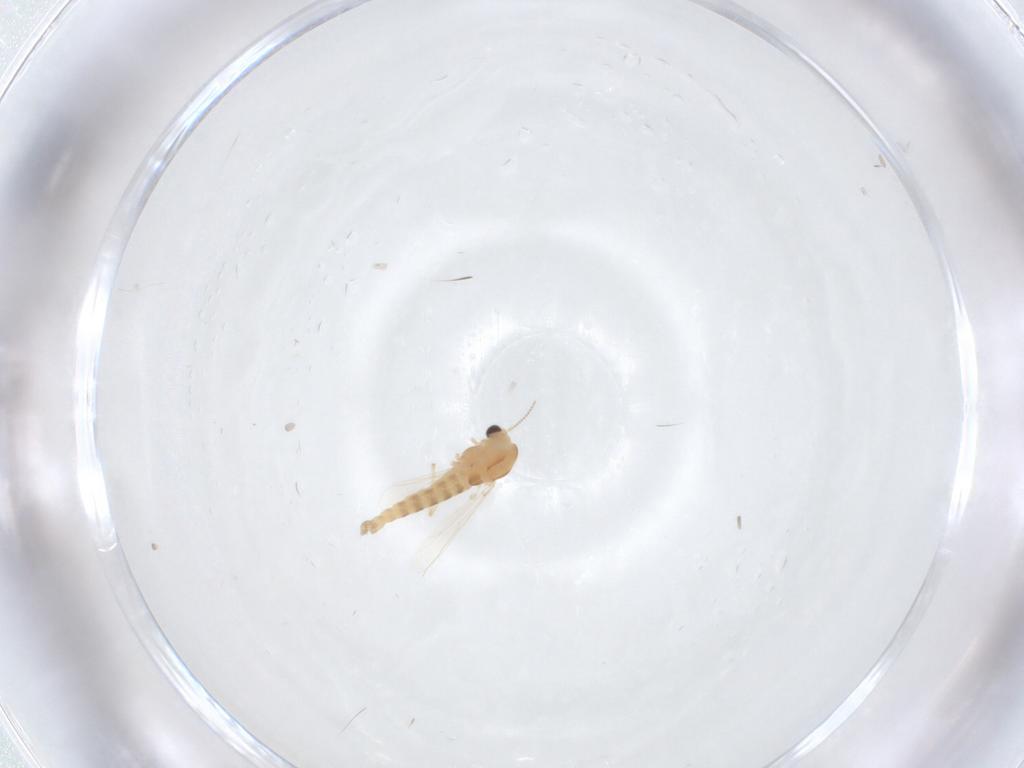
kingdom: Animalia
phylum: Arthropoda
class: Insecta
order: Diptera
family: Chironomidae
